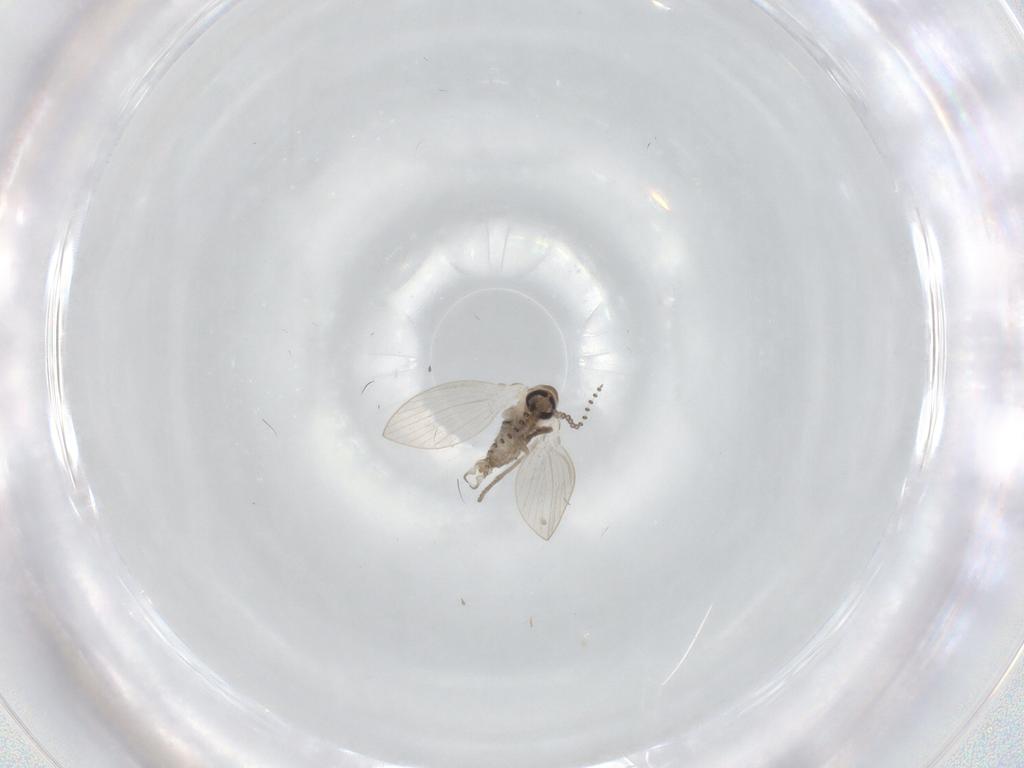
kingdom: Animalia
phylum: Arthropoda
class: Insecta
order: Diptera
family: Psychodidae
